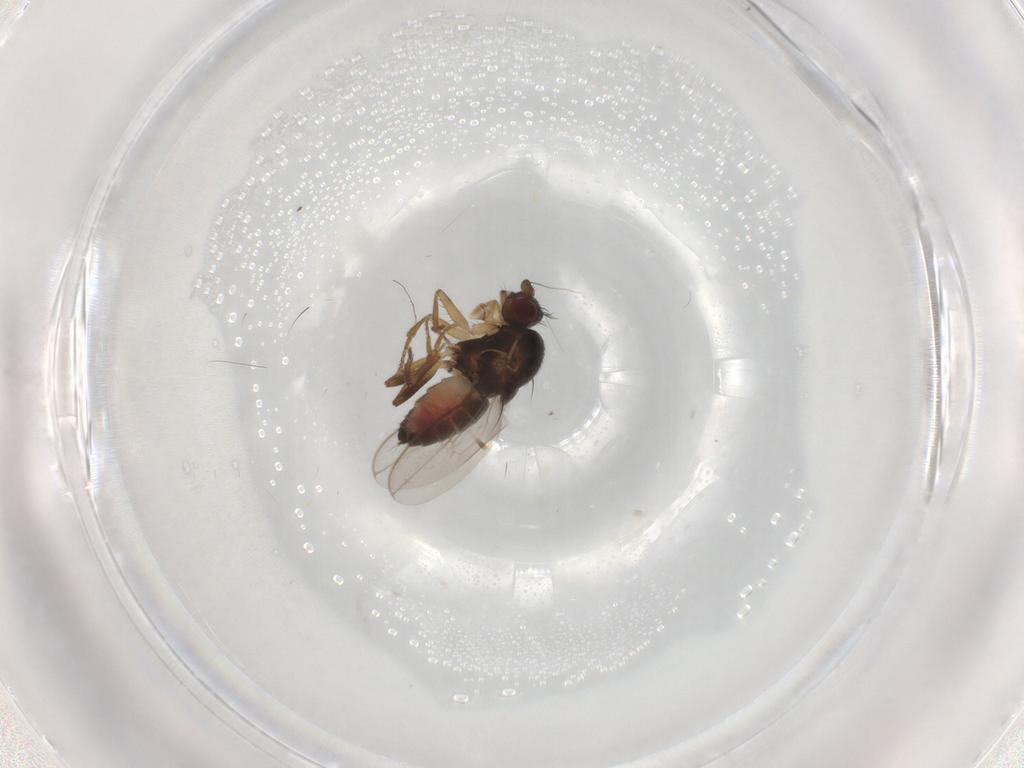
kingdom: Animalia
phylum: Arthropoda
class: Insecta
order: Diptera
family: Sphaeroceridae
